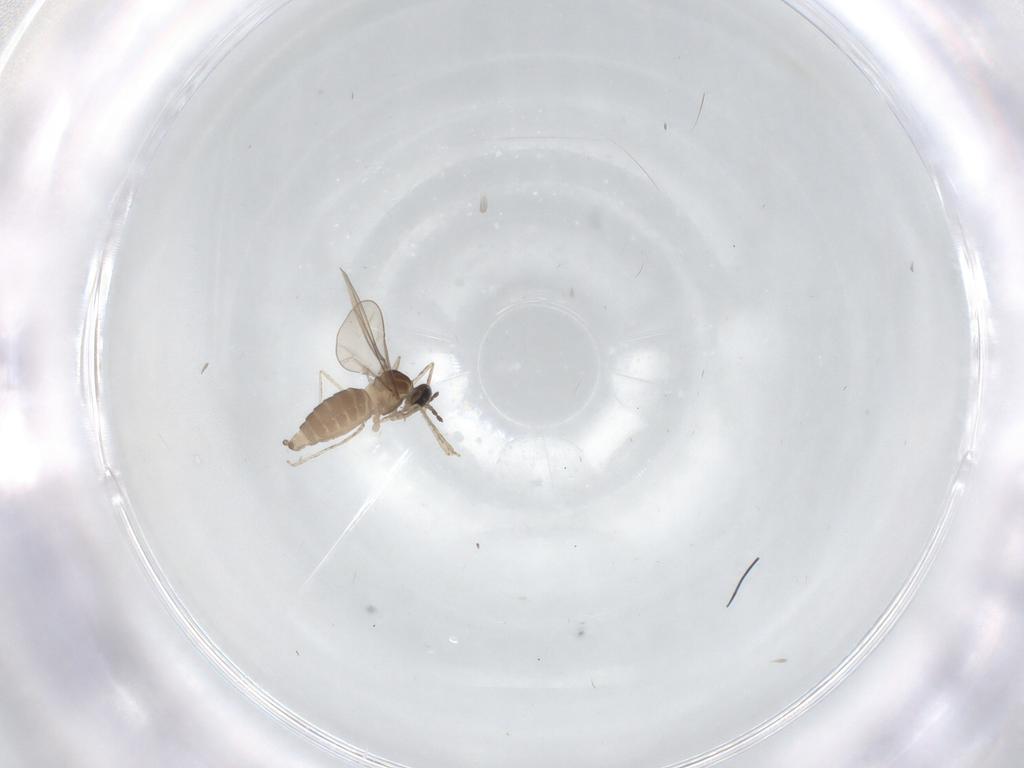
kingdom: Animalia
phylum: Arthropoda
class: Insecta
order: Diptera
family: Cecidomyiidae
